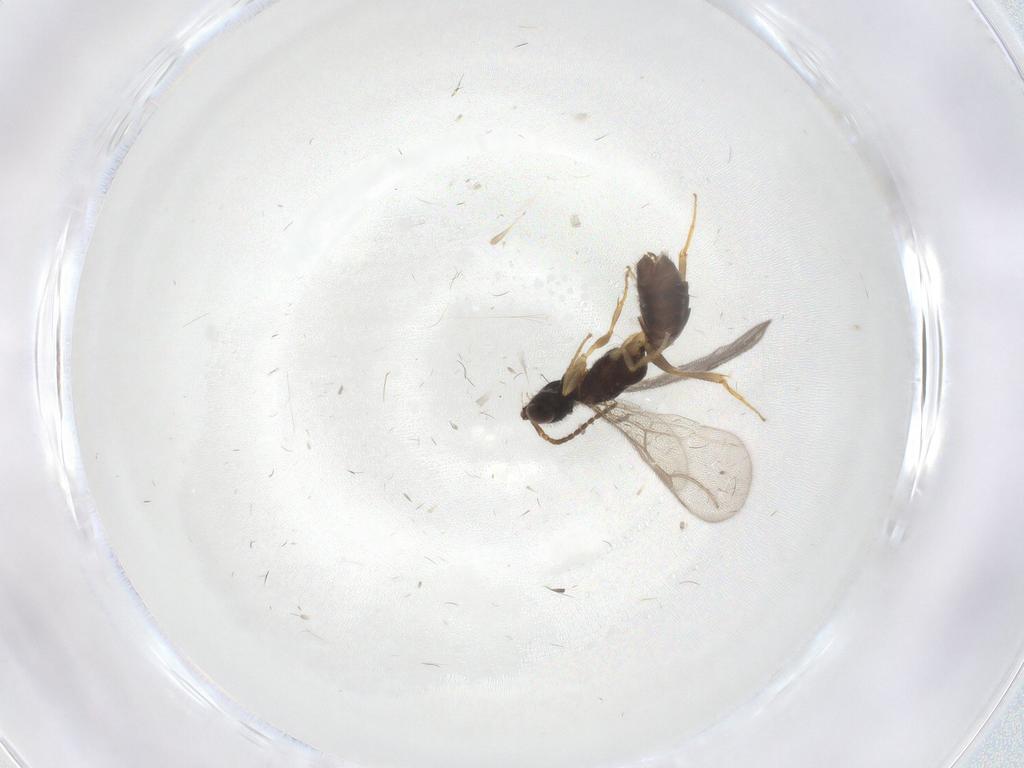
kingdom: Animalia
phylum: Arthropoda
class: Insecta
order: Hymenoptera
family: Bethylidae
